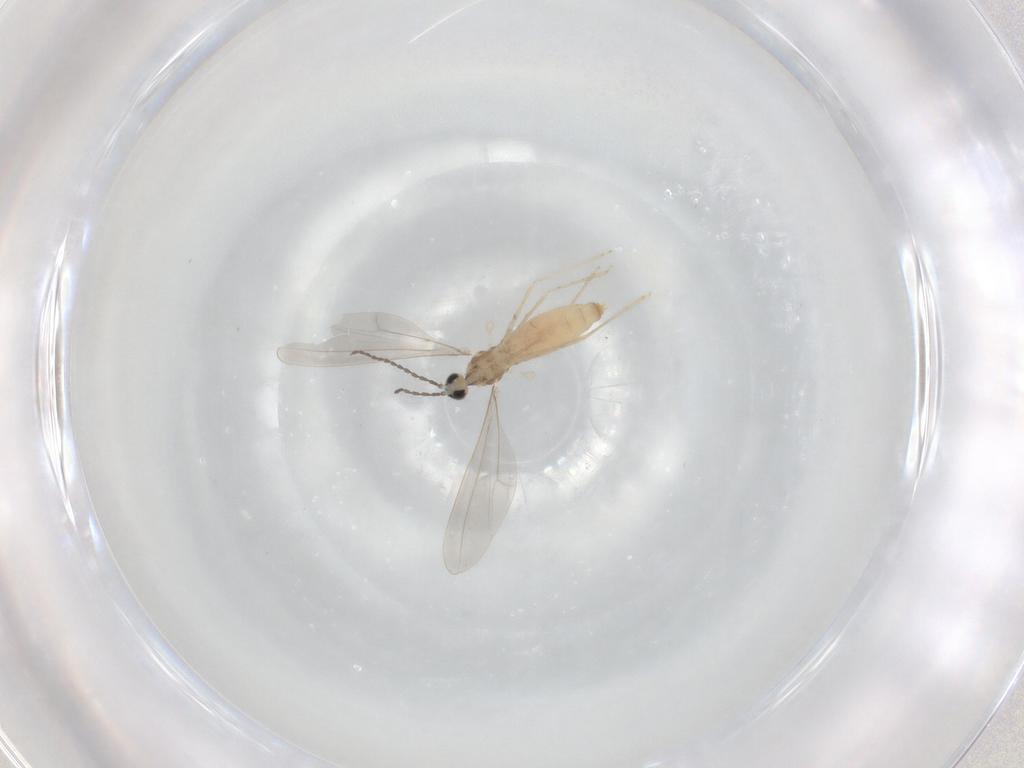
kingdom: Animalia
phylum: Arthropoda
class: Insecta
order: Diptera
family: Cecidomyiidae
